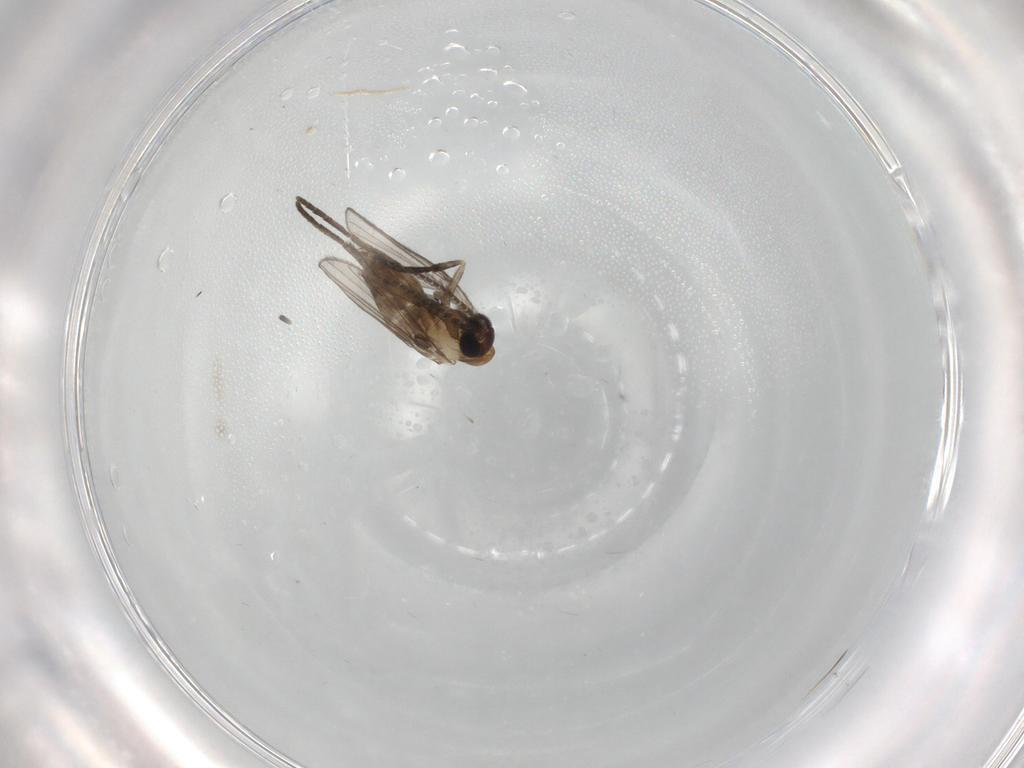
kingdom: Animalia
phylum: Arthropoda
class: Insecta
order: Diptera
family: Psychodidae
